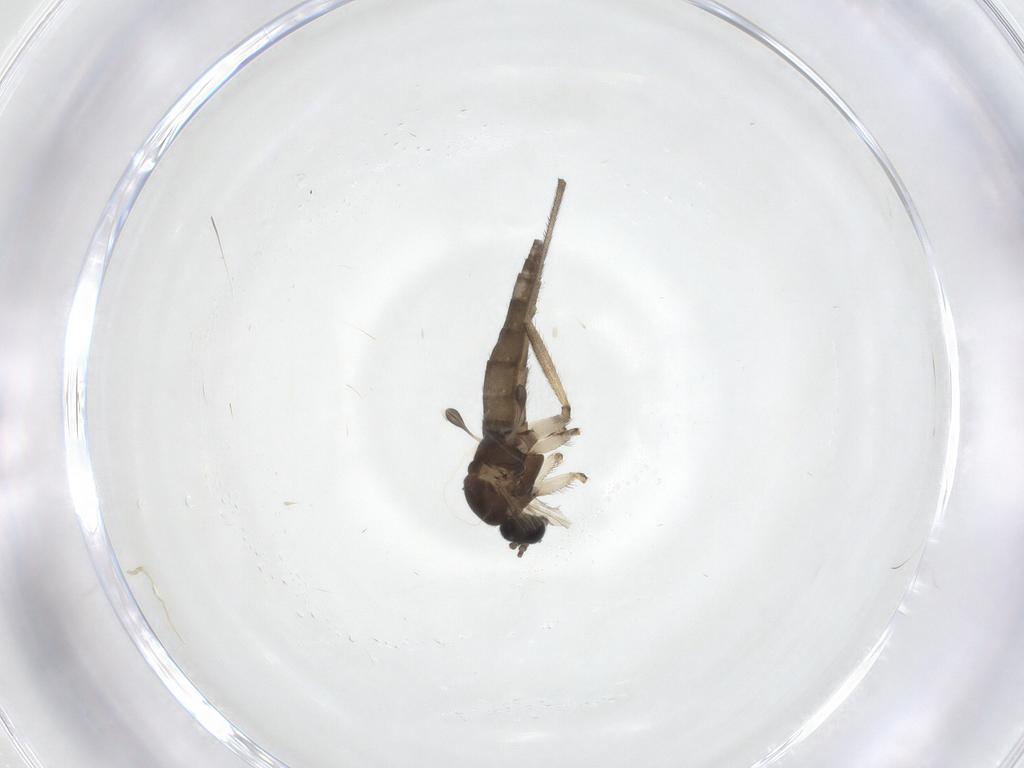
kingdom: Animalia
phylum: Arthropoda
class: Insecta
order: Diptera
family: Sciaridae
